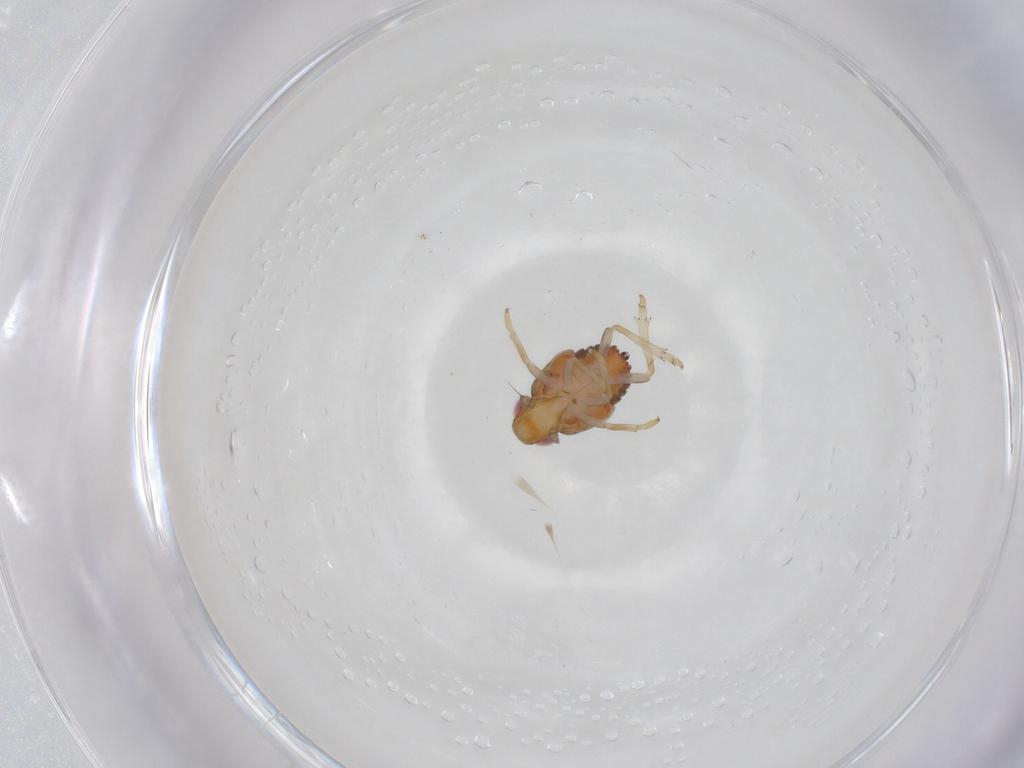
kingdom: Animalia
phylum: Arthropoda
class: Insecta
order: Hemiptera
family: Issidae
